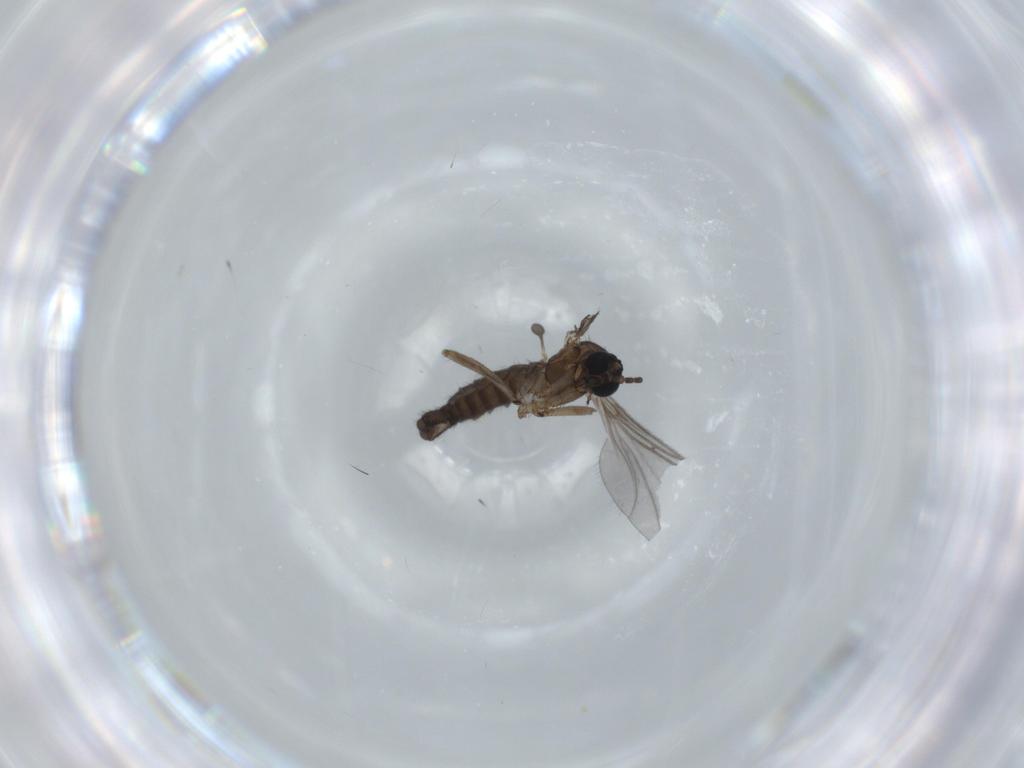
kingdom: Animalia
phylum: Arthropoda
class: Insecta
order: Diptera
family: Sciaridae
